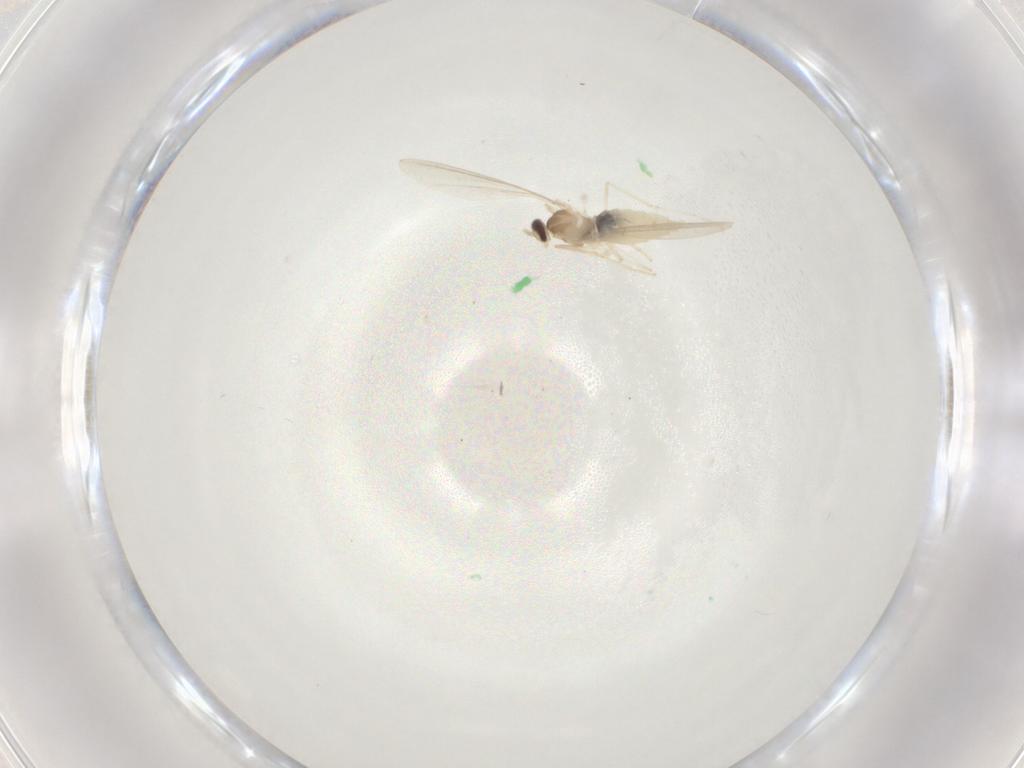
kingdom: Animalia
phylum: Arthropoda
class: Insecta
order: Diptera
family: Cecidomyiidae
